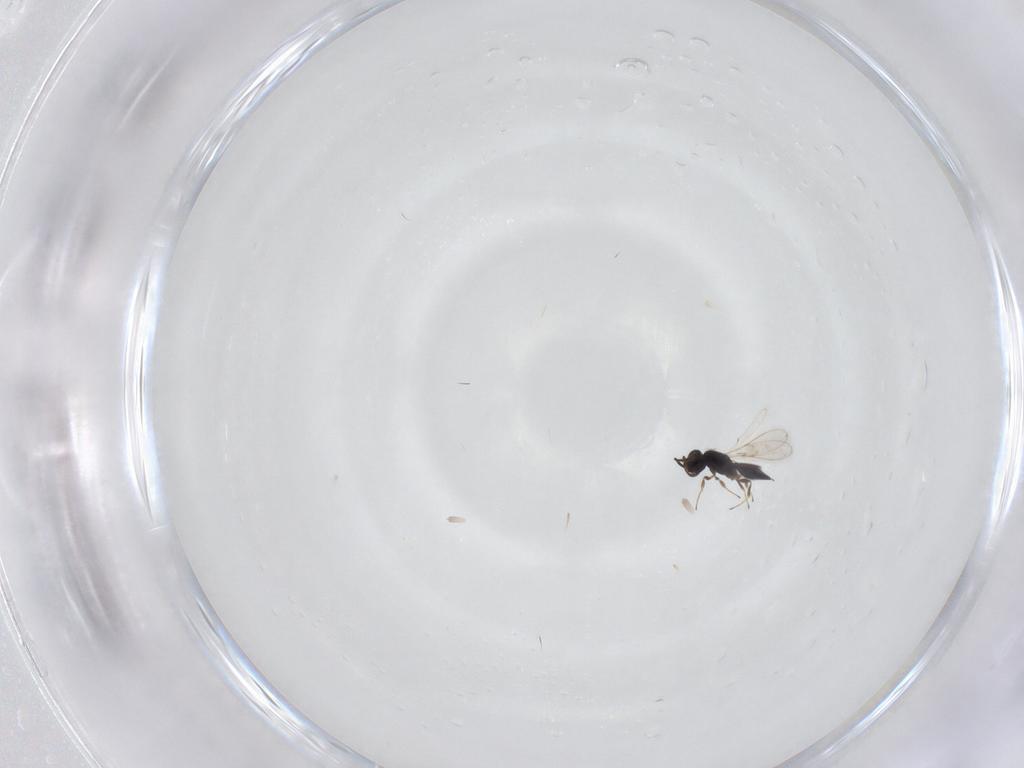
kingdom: Animalia
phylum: Arthropoda
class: Insecta
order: Hymenoptera
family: Scelionidae
